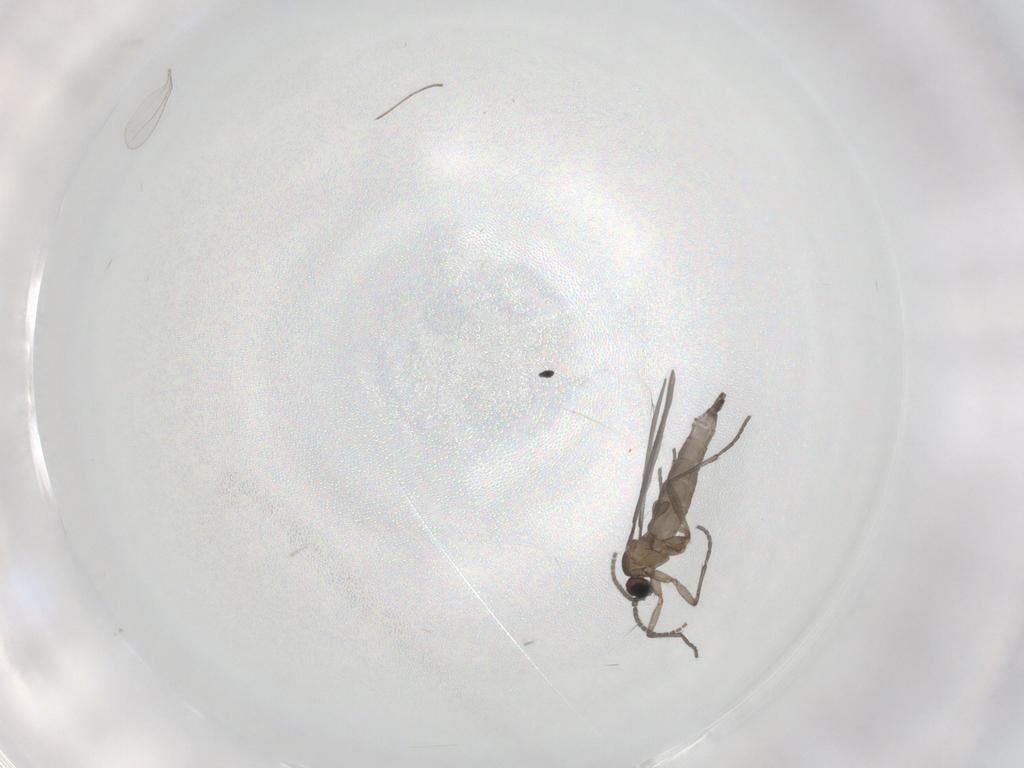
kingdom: Animalia
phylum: Arthropoda
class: Insecta
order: Diptera
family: Sciaridae
